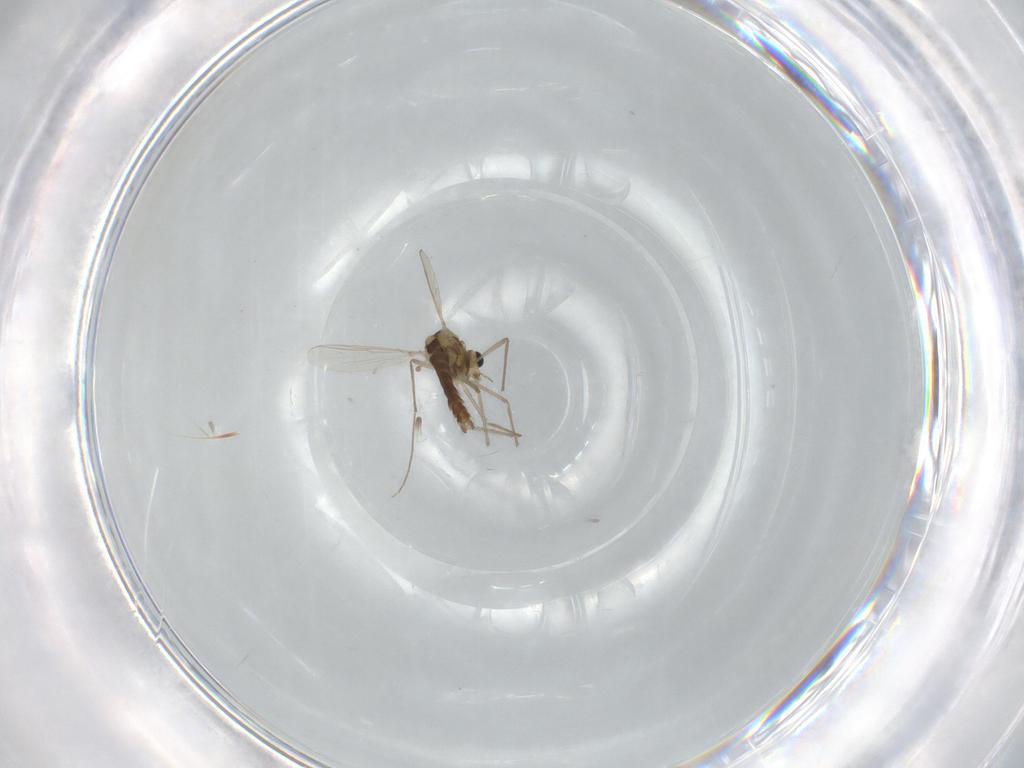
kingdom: Animalia
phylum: Arthropoda
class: Insecta
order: Diptera
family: Chironomidae
